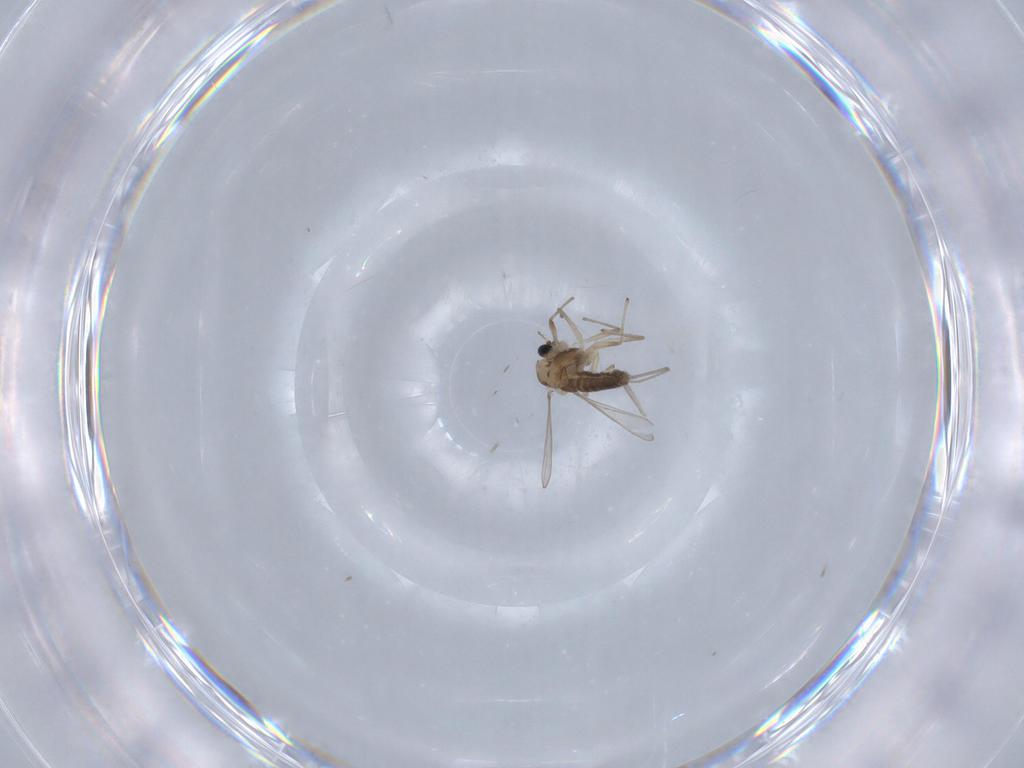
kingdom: Animalia
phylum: Arthropoda
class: Insecta
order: Diptera
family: Chironomidae
